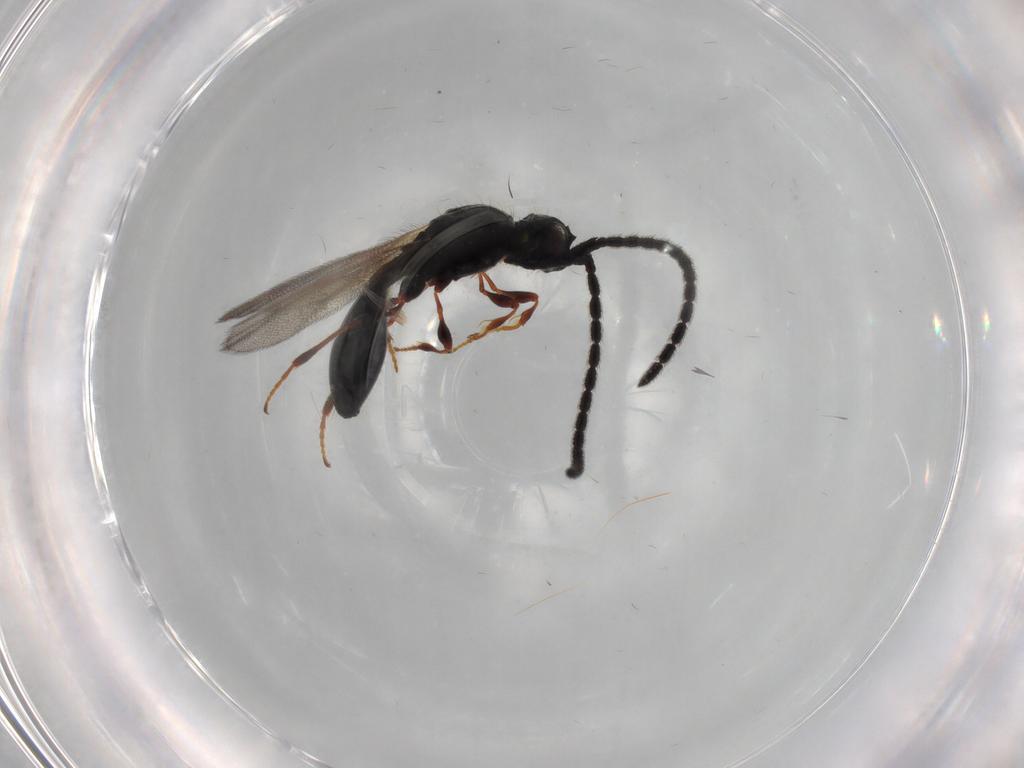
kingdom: Animalia
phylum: Arthropoda
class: Insecta
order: Hymenoptera
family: Diapriidae
